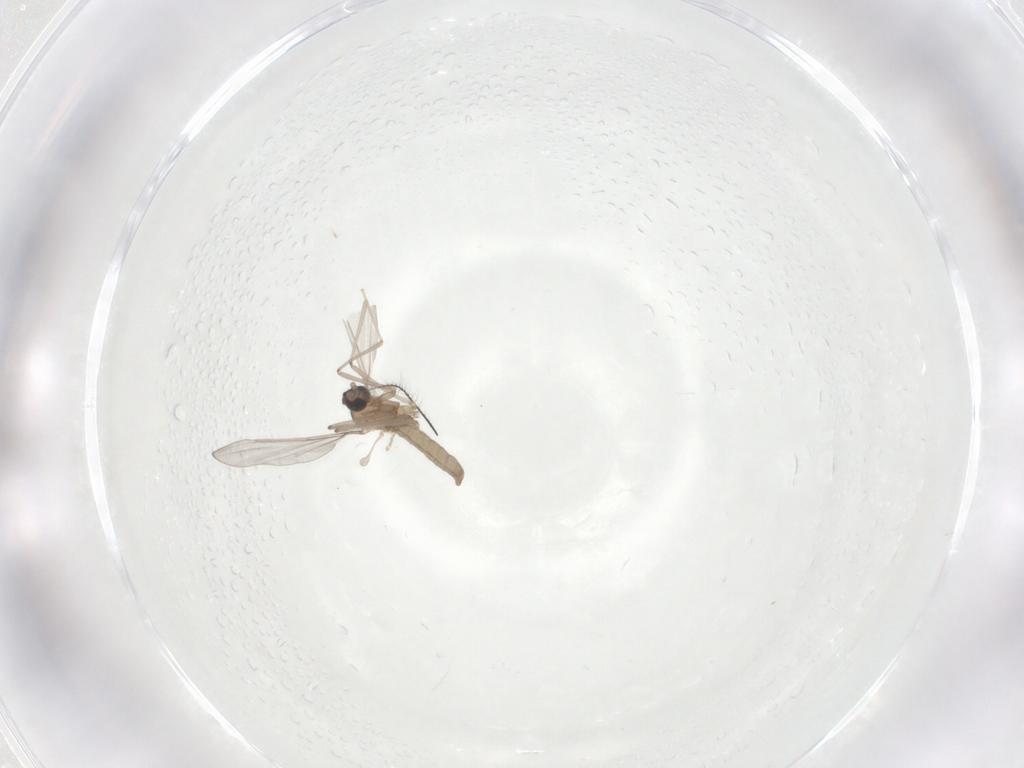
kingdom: Animalia
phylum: Arthropoda
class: Insecta
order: Diptera
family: Cecidomyiidae
